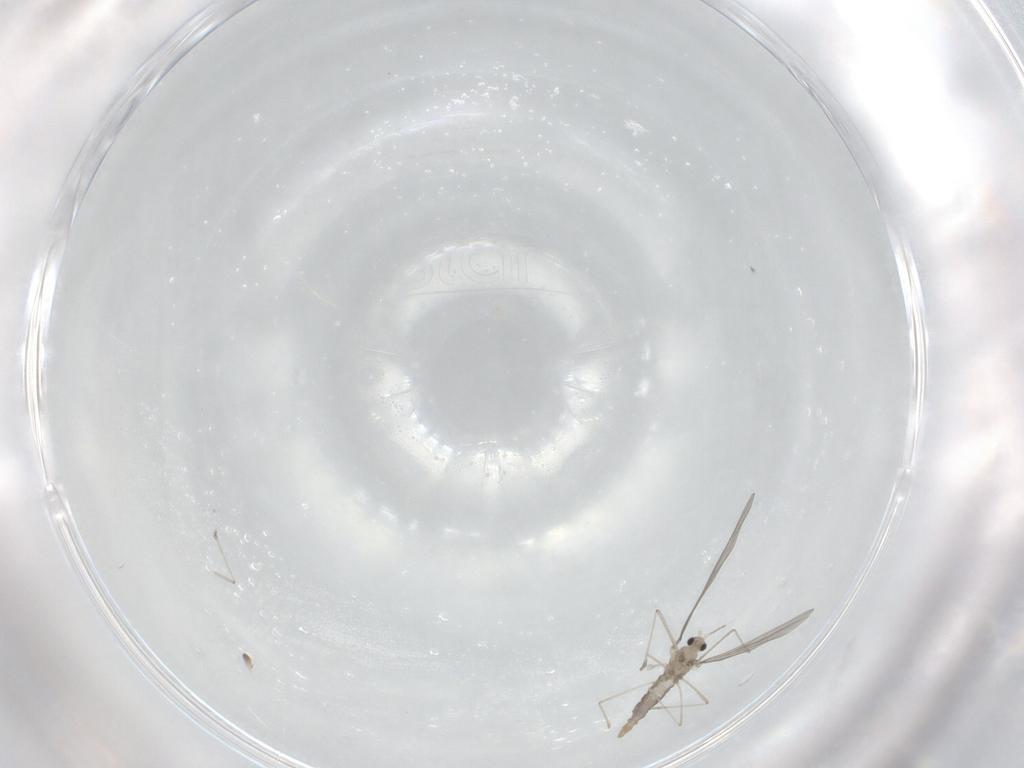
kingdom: Animalia
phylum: Arthropoda
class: Insecta
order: Diptera
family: Cecidomyiidae
